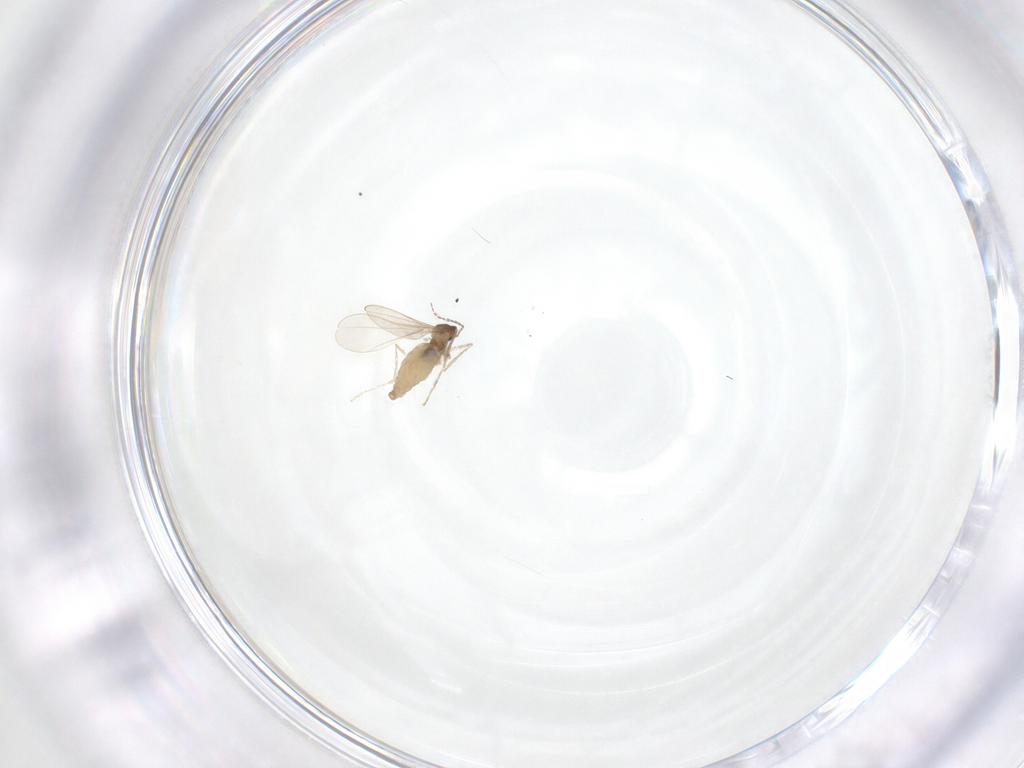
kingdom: Animalia
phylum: Arthropoda
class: Insecta
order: Diptera
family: Cecidomyiidae
